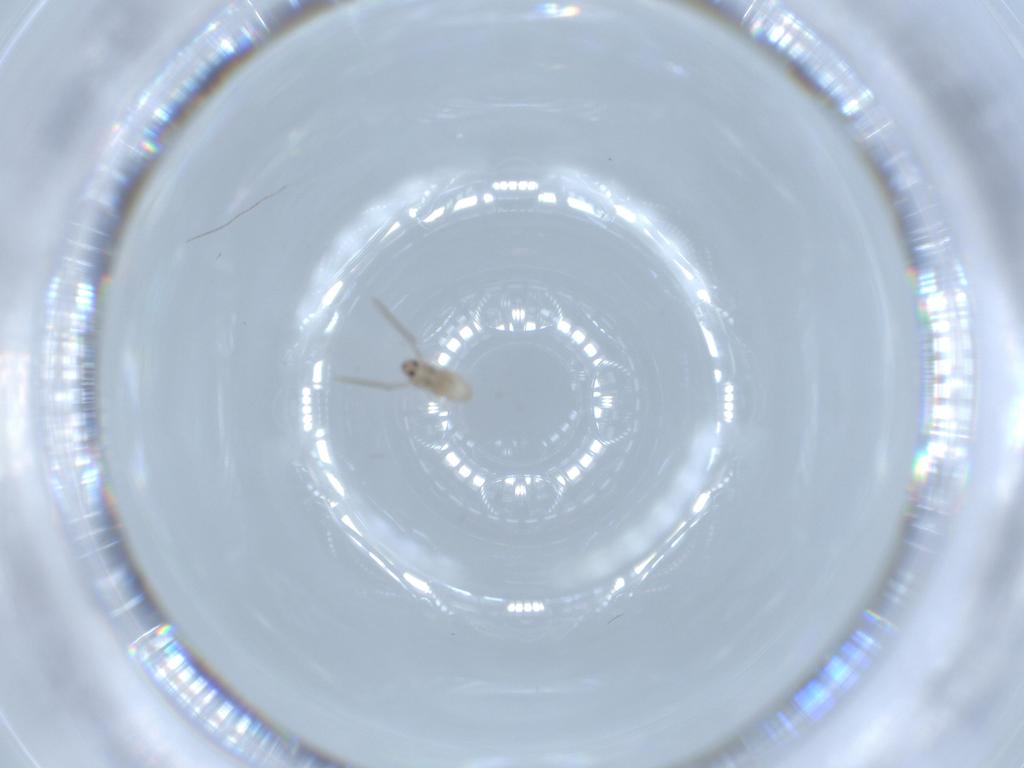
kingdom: Animalia
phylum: Arthropoda
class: Insecta
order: Diptera
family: Cecidomyiidae
